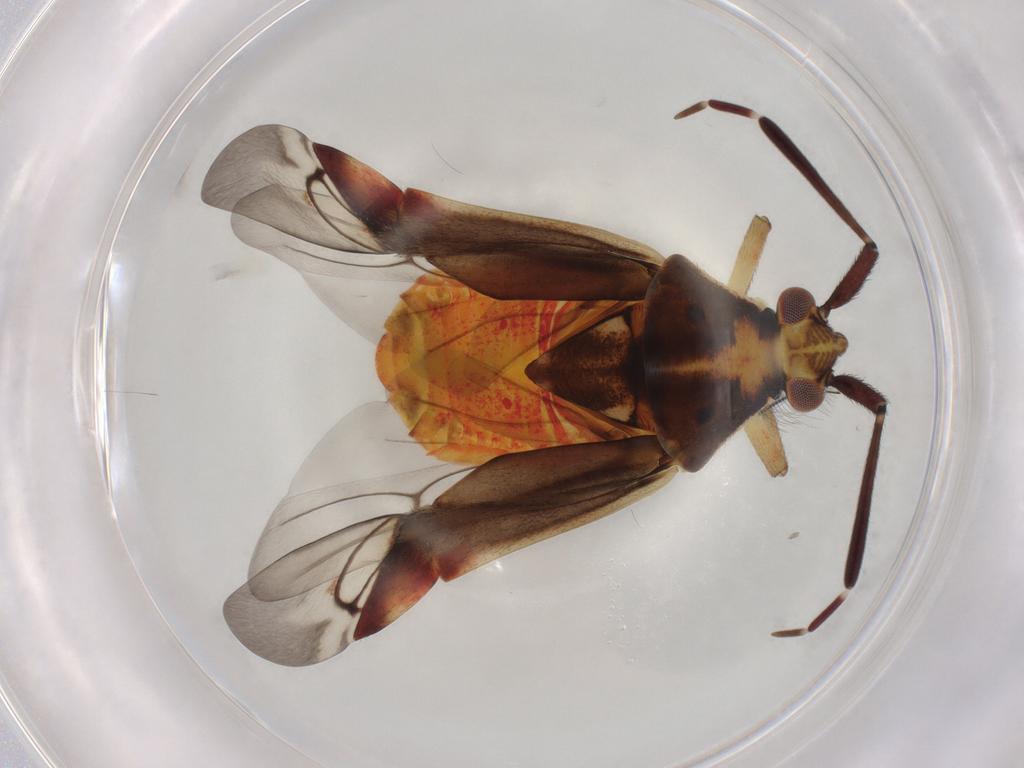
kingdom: Animalia
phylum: Arthropoda
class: Insecta
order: Hemiptera
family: Miridae
